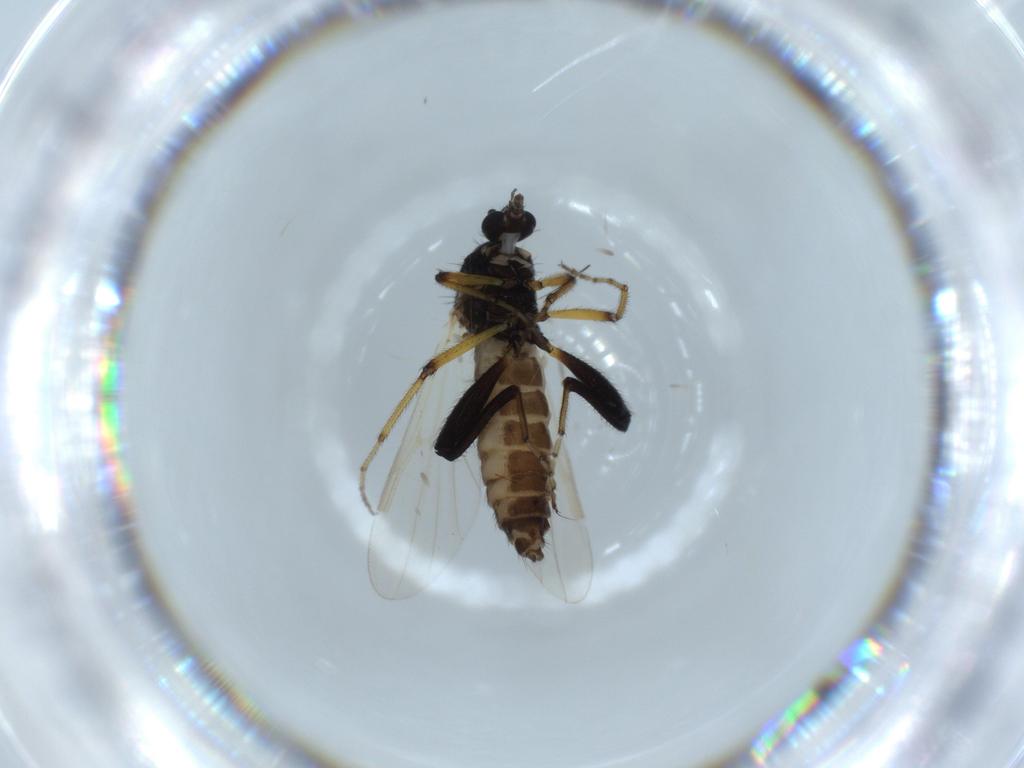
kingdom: Animalia
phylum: Arthropoda
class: Insecta
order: Diptera
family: Ceratopogonidae
